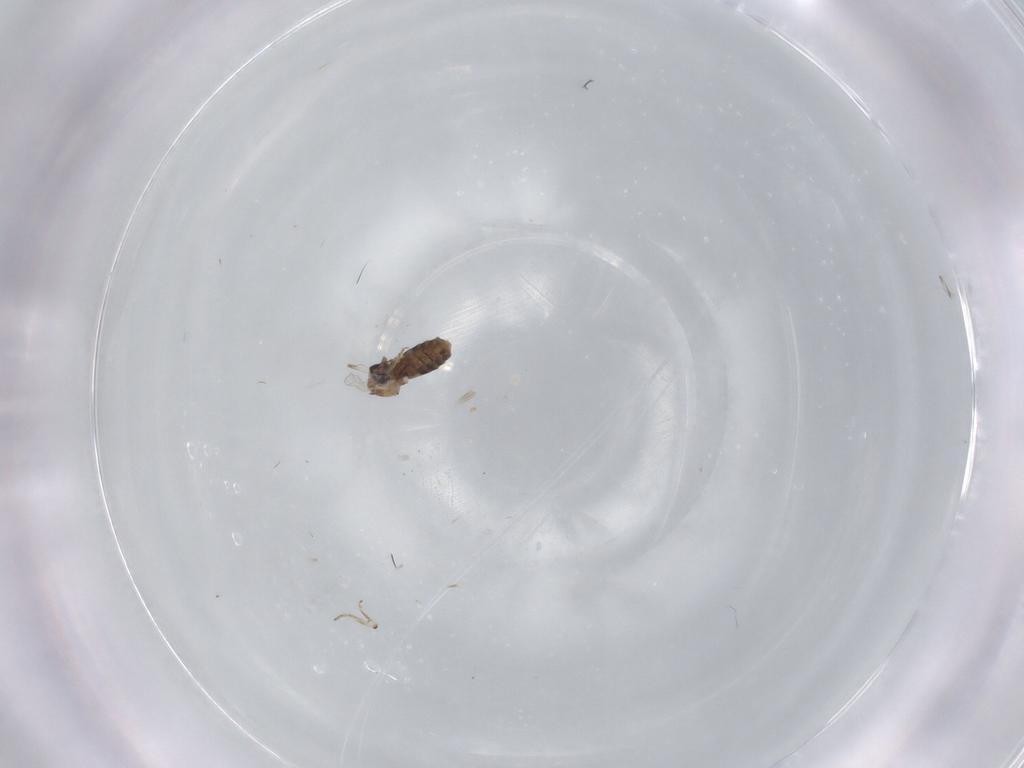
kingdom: Animalia
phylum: Arthropoda
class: Insecta
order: Diptera
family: Ceratopogonidae
